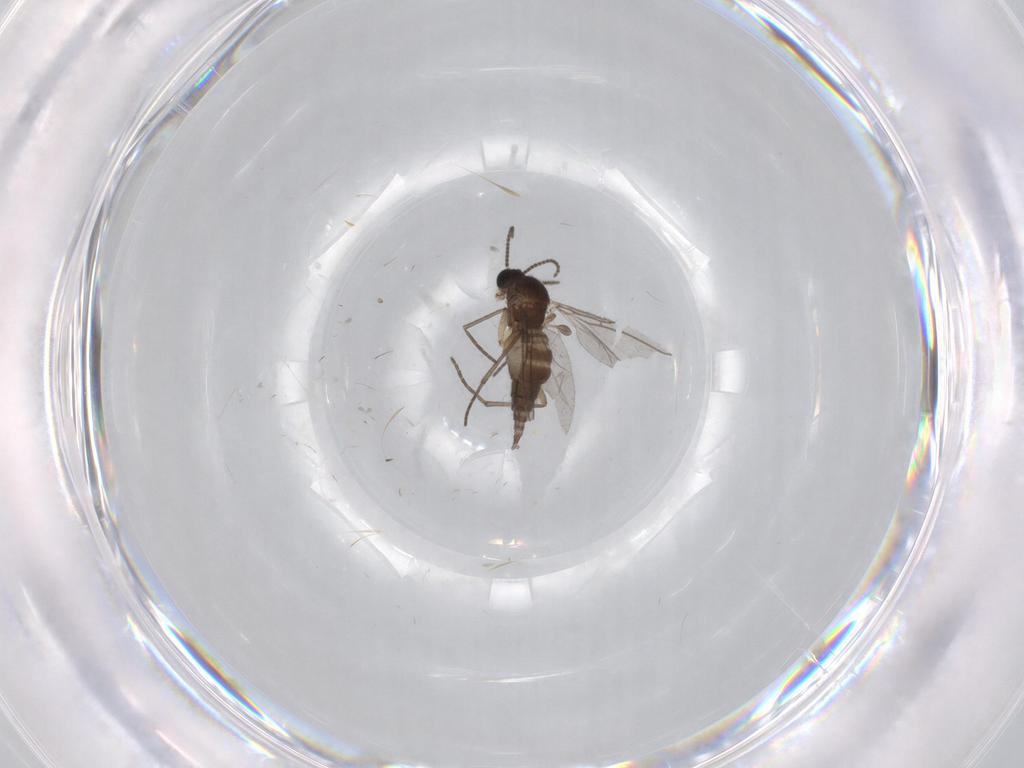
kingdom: Animalia
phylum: Arthropoda
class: Insecta
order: Diptera
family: Sciaridae
